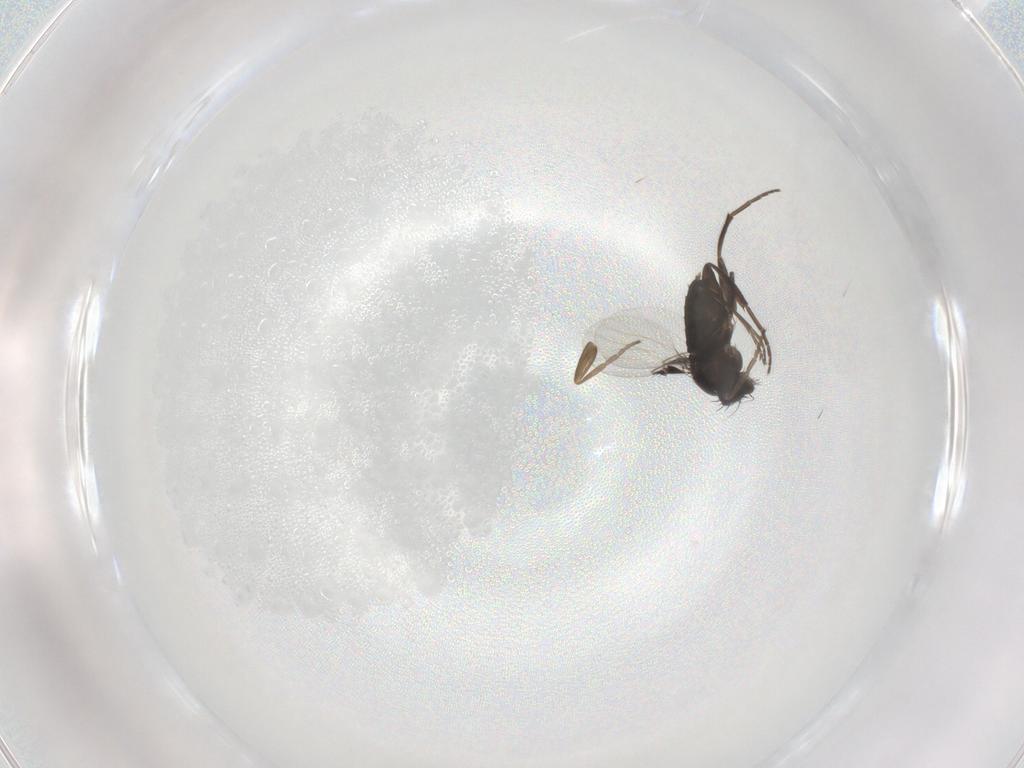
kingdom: Animalia
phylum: Arthropoda
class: Insecta
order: Diptera
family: Phoridae
